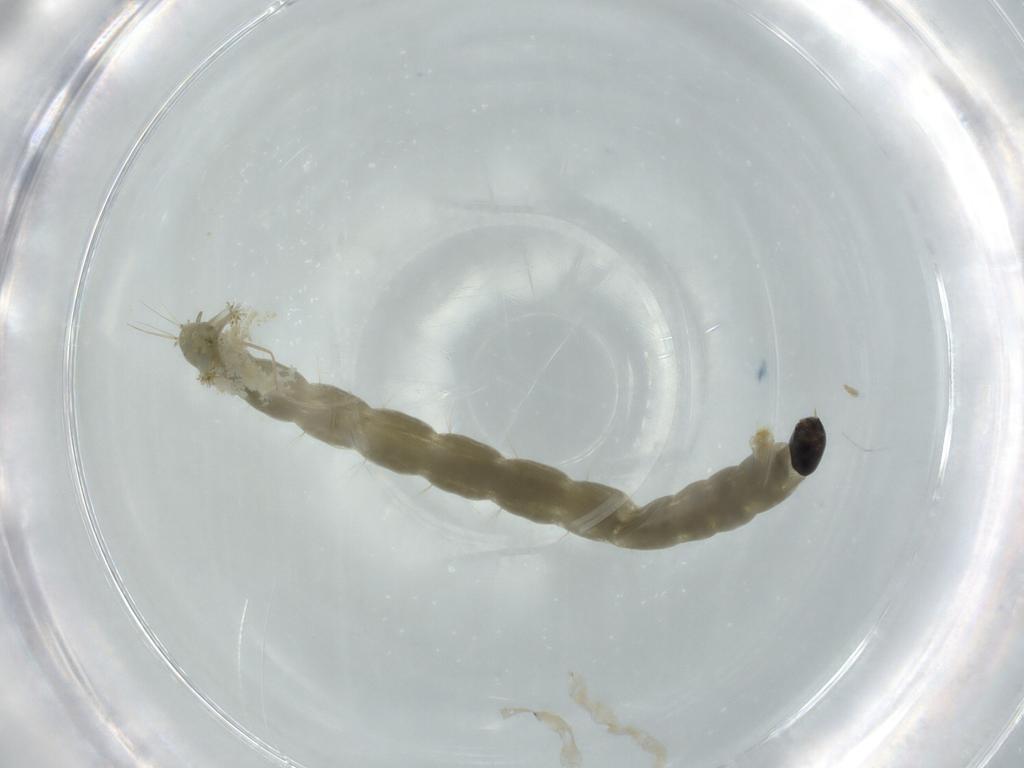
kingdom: Animalia
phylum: Arthropoda
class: Insecta
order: Diptera
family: Chironomidae
